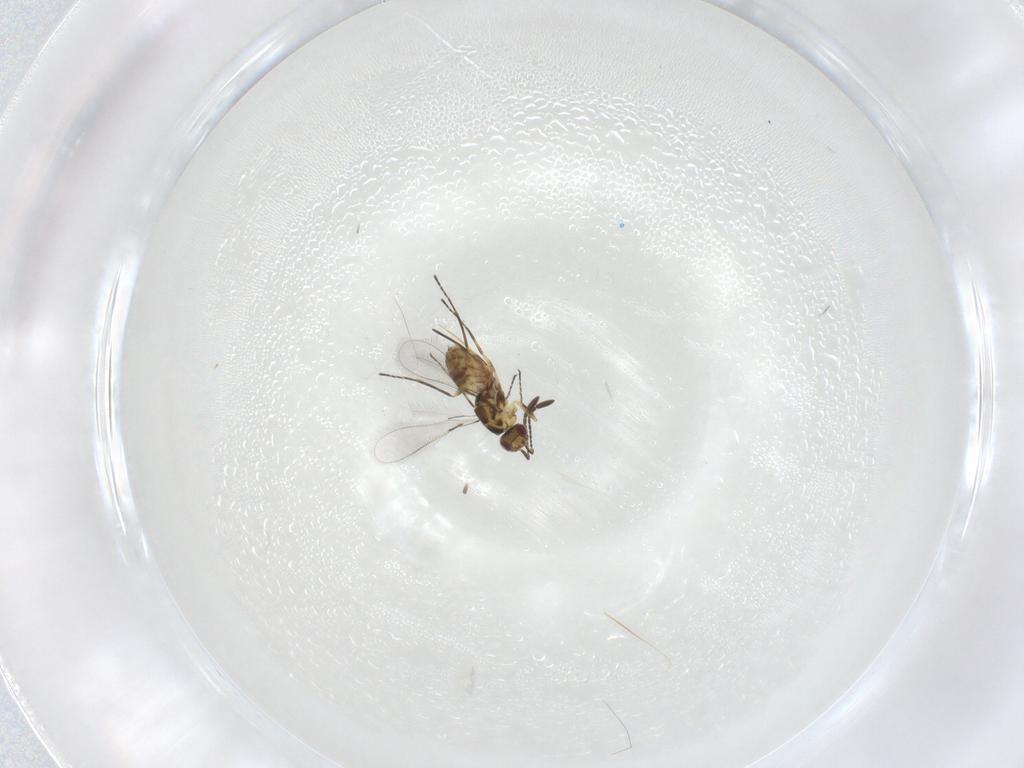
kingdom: Animalia
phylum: Arthropoda
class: Insecta
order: Hymenoptera
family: Mymaridae
